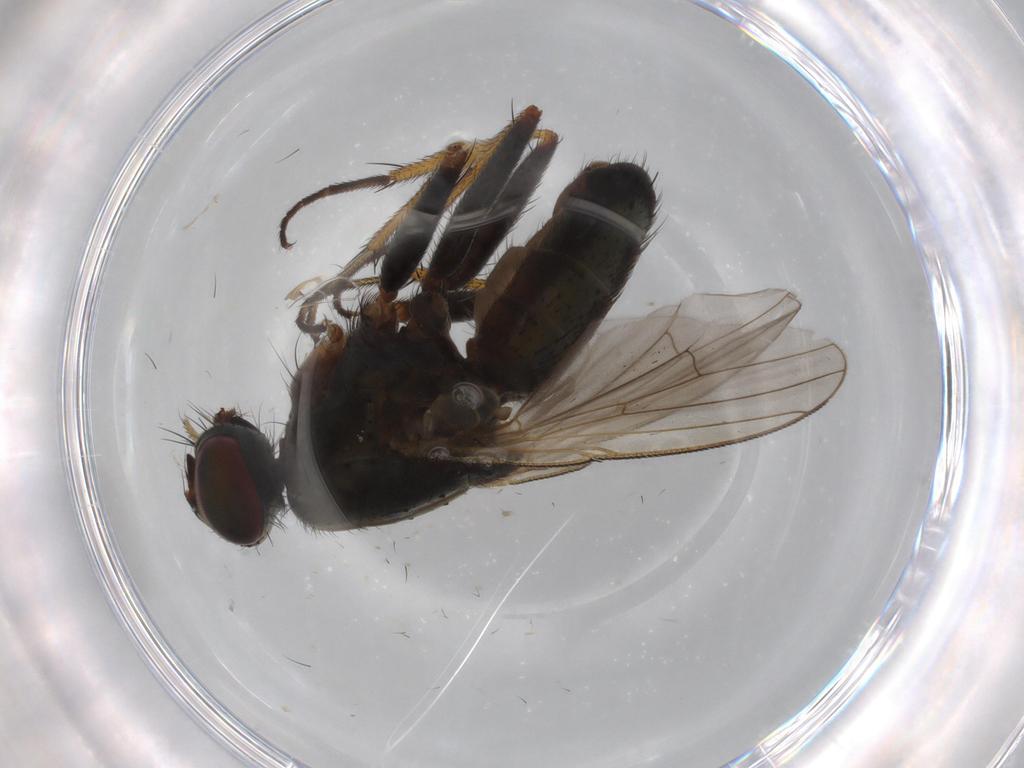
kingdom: Animalia
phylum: Arthropoda
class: Insecta
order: Diptera
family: Muscidae
